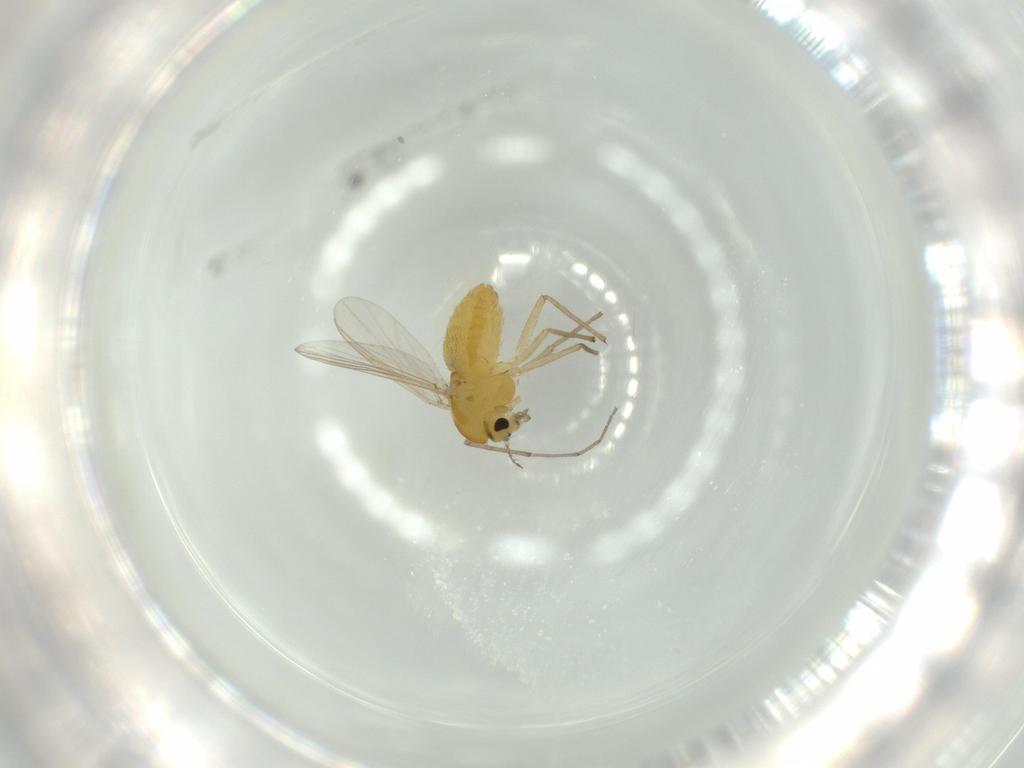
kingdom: Animalia
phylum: Arthropoda
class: Insecta
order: Diptera
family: Chironomidae
